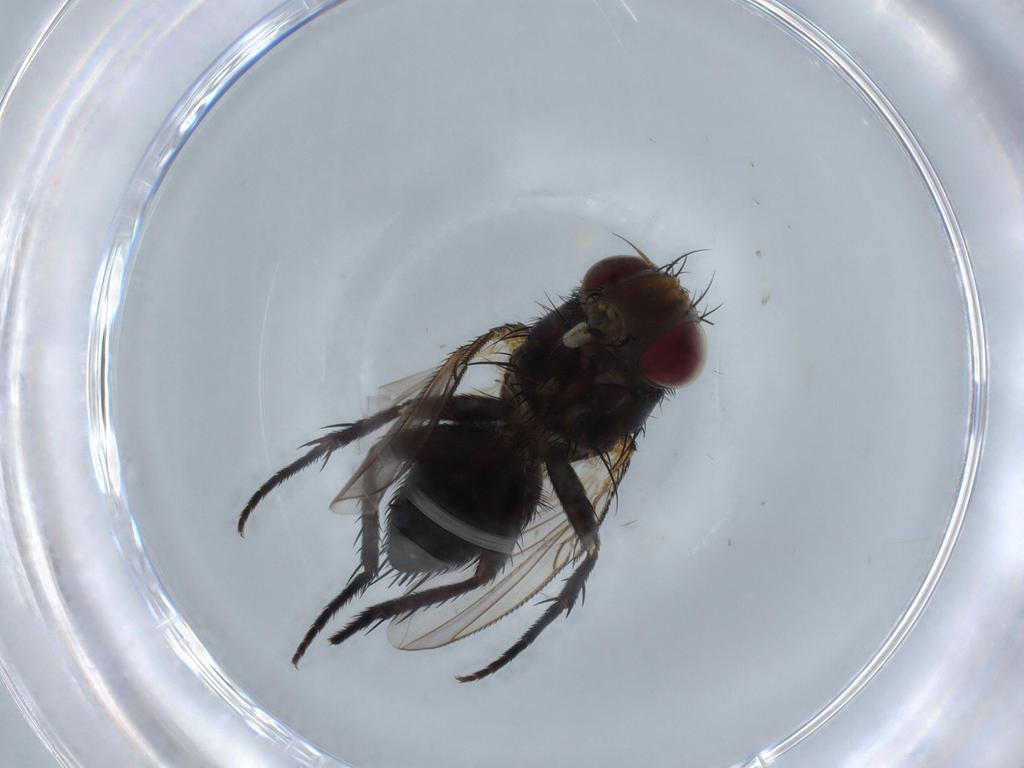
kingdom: Animalia
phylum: Arthropoda
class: Insecta
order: Diptera
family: Tachinidae
